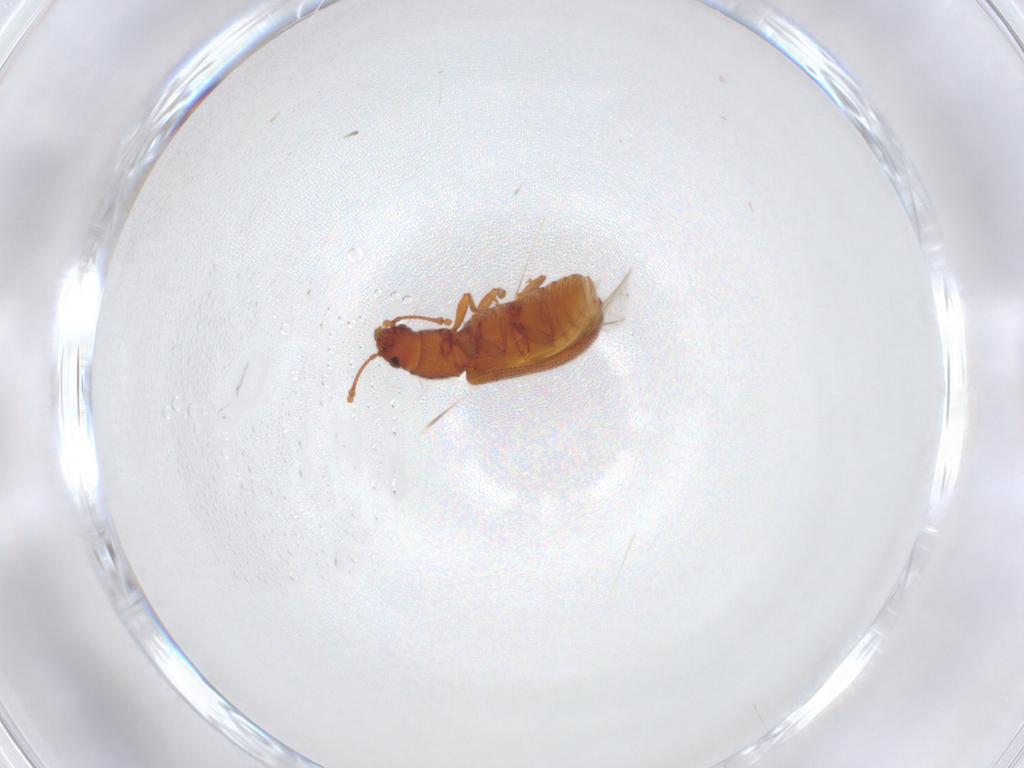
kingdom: Animalia
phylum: Arthropoda
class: Insecta
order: Coleoptera
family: Mycetophagidae
